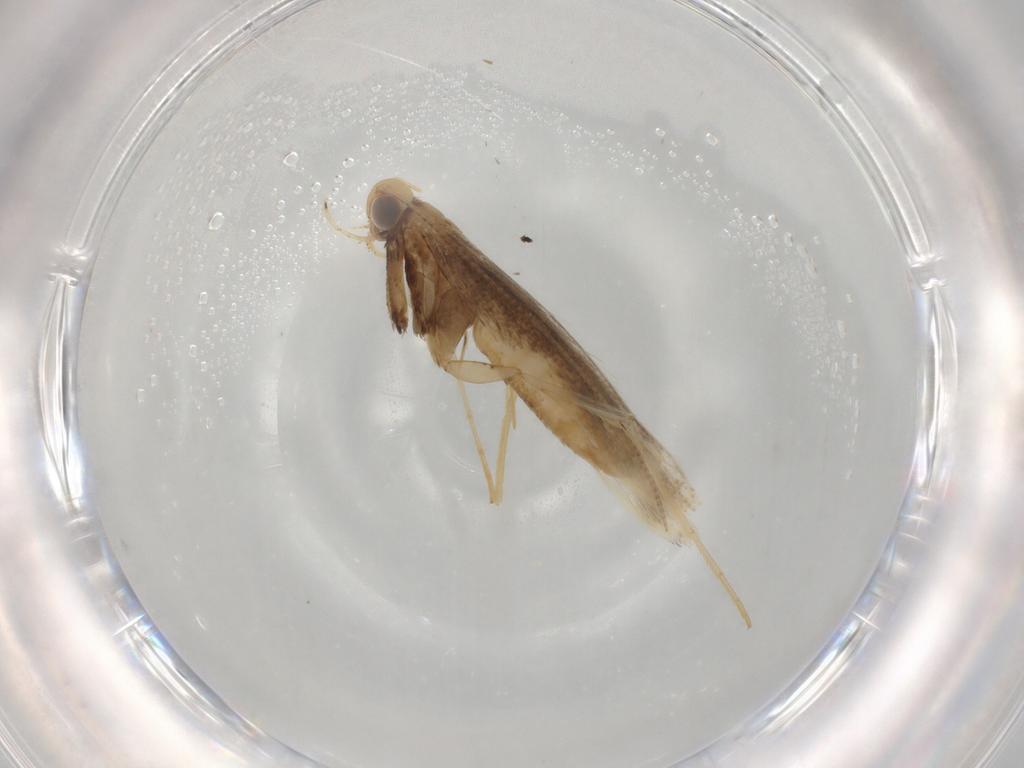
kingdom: Animalia
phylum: Arthropoda
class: Insecta
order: Lepidoptera
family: Gracillariidae
